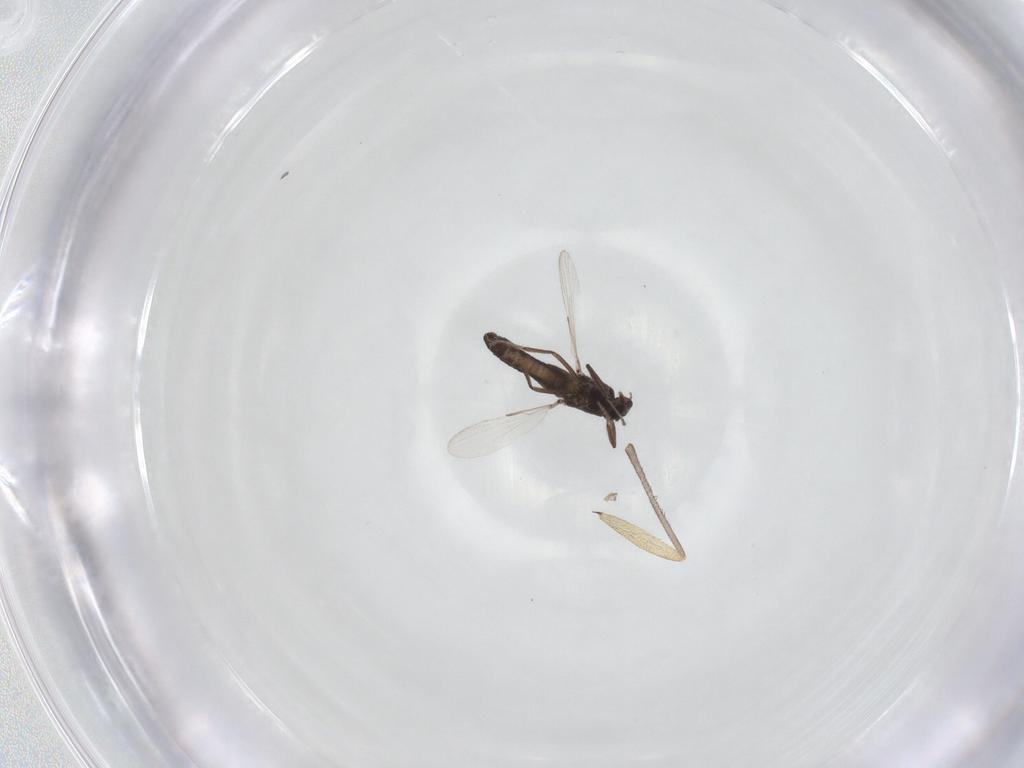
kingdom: Animalia
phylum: Arthropoda
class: Insecta
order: Diptera
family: Ceratopogonidae
